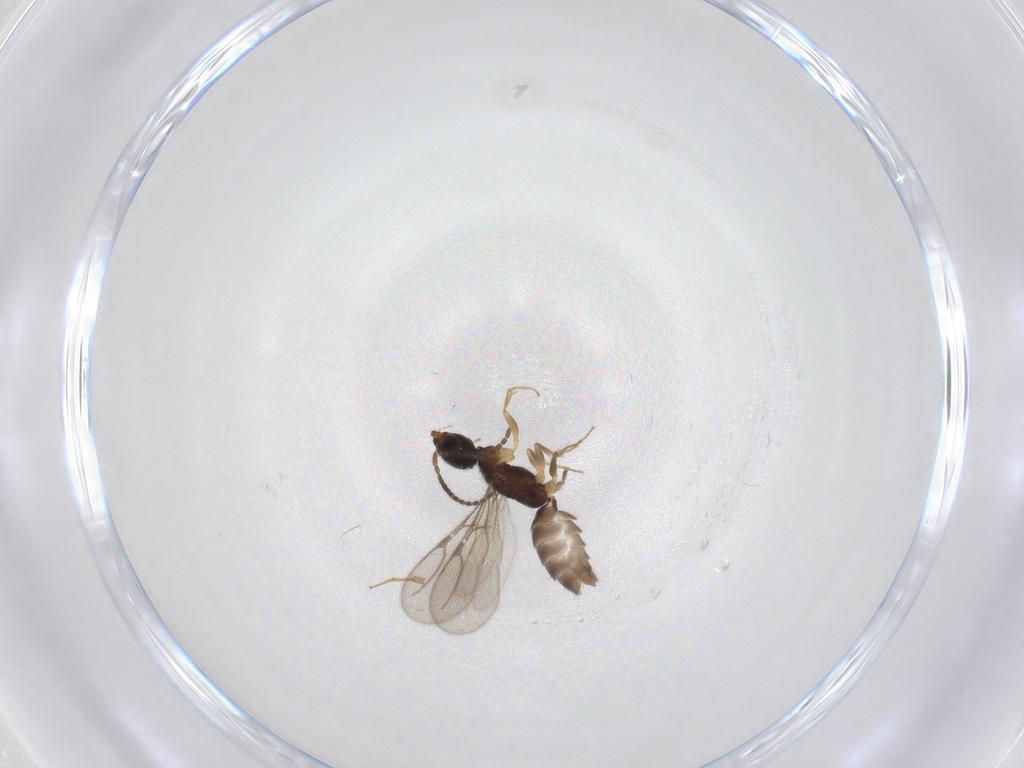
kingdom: Animalia
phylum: Arthropoda
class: Insecta
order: Hymenoptera
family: Bethylidae
